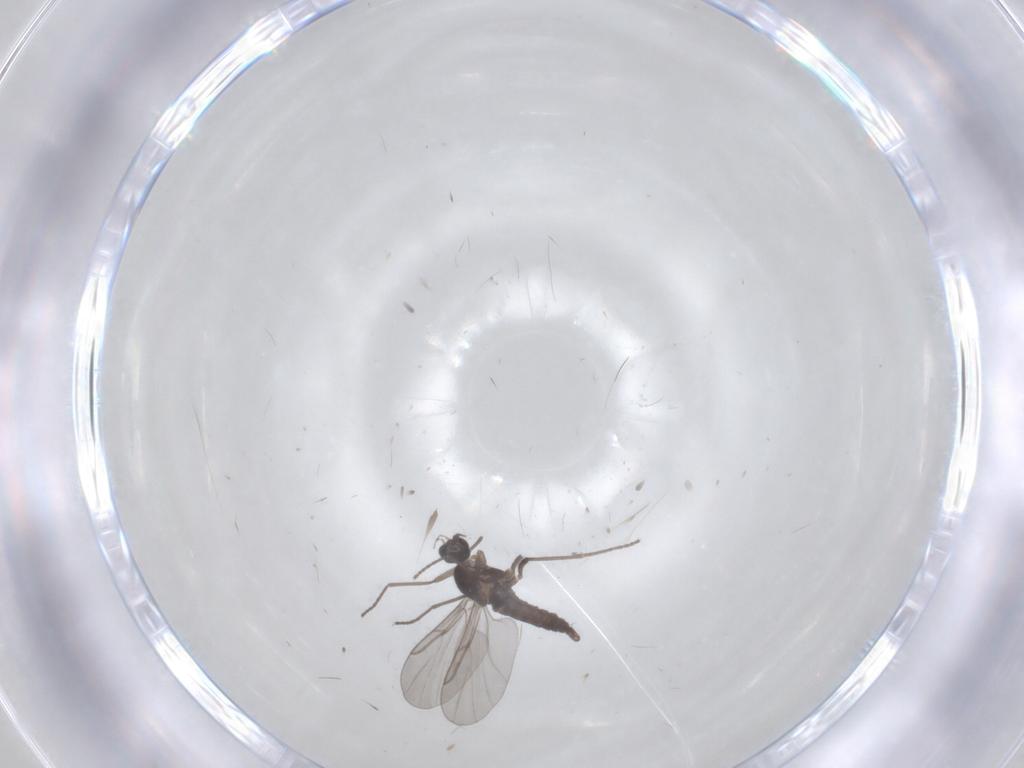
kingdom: Animalia
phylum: Arthropoda
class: Insecta
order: Diptera
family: Cecidomyiidae
